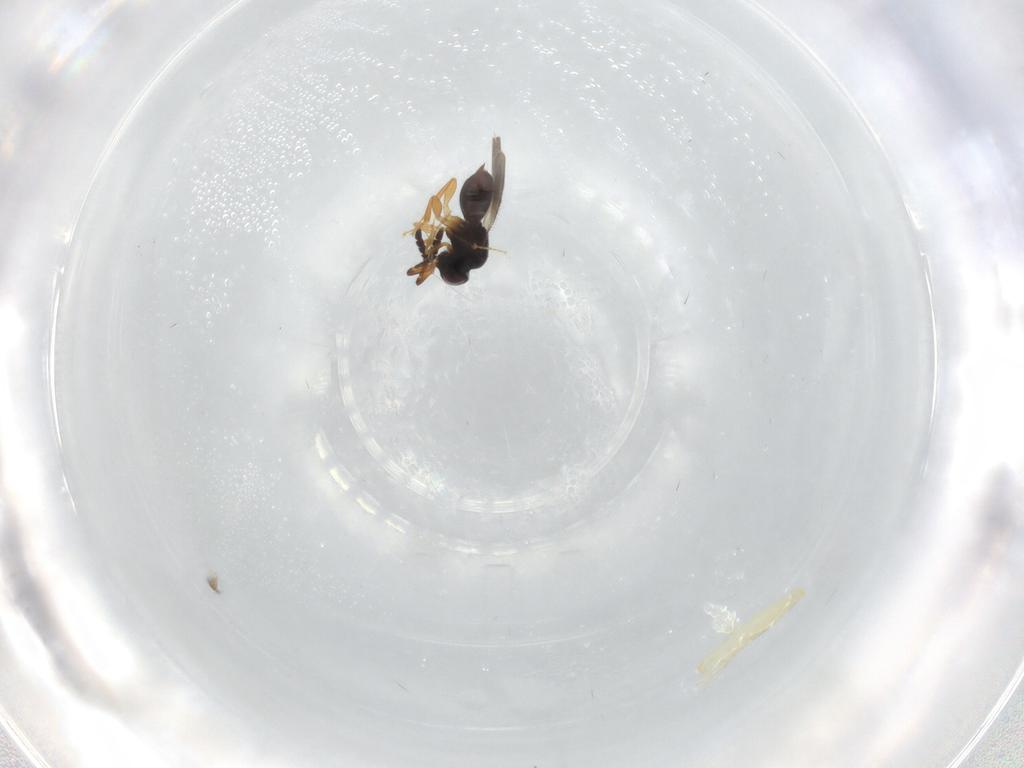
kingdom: Animalia
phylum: Arthropoda
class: Insecta
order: Hymenoptera
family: Ceraphronidae
